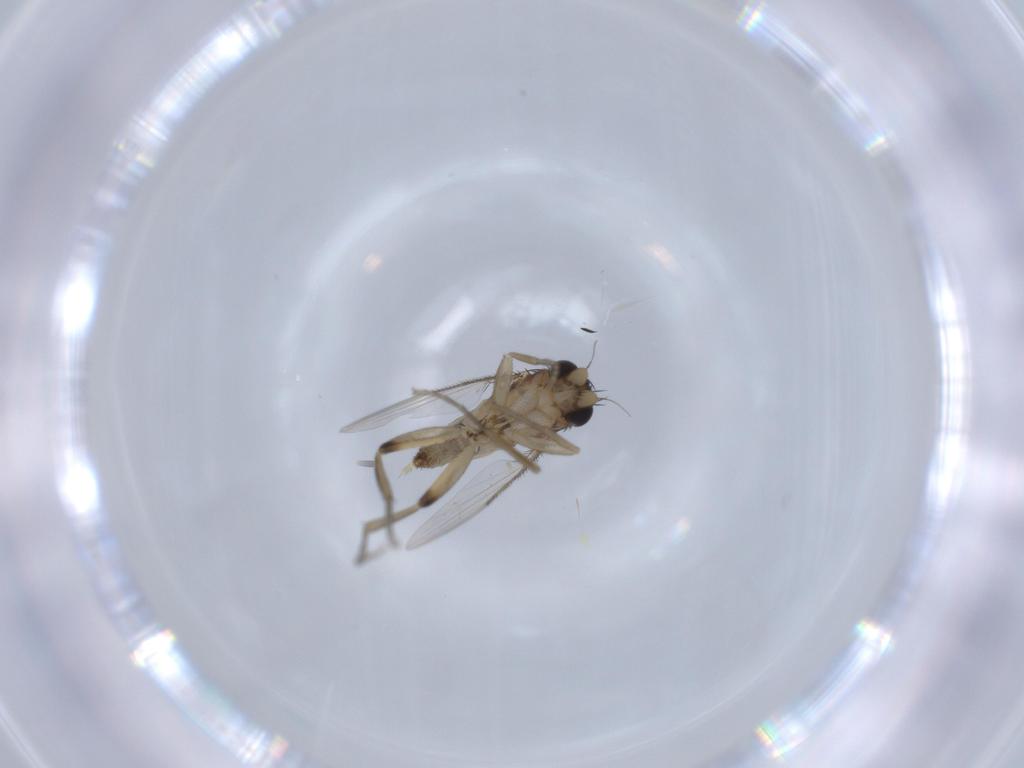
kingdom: Animalia
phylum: Arthropoda
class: Insecta
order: Diptera
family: Phoridae
